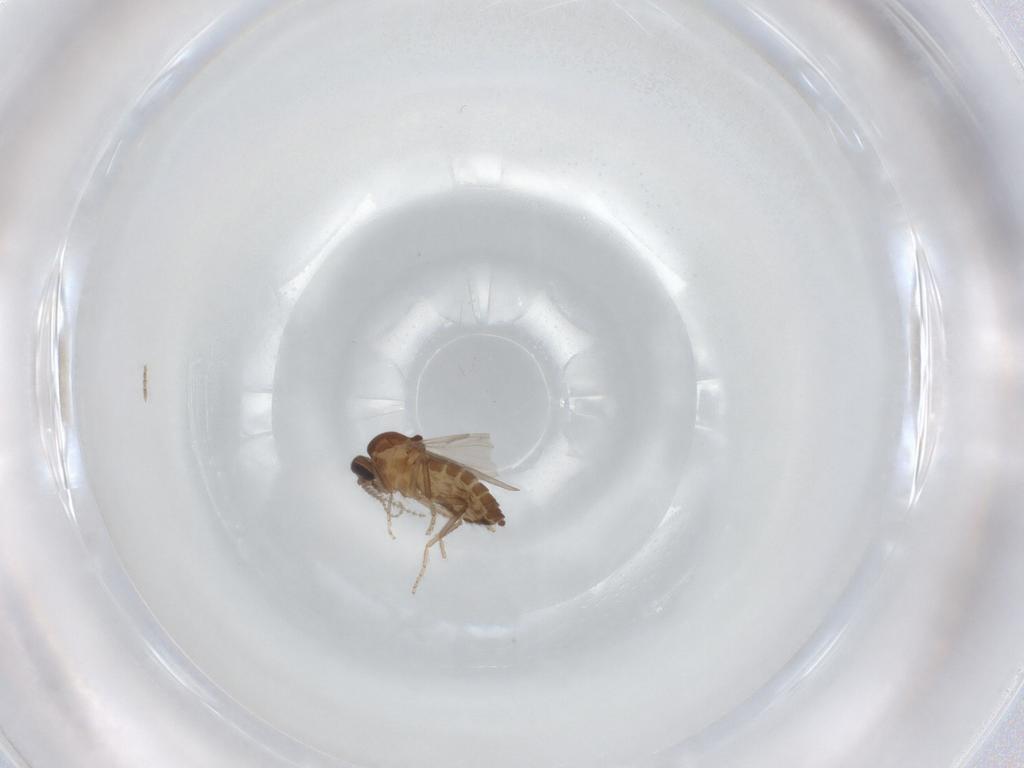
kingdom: Animalia
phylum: Arthropoda
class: Insecta
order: Diptera
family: Ceratopogonidae
